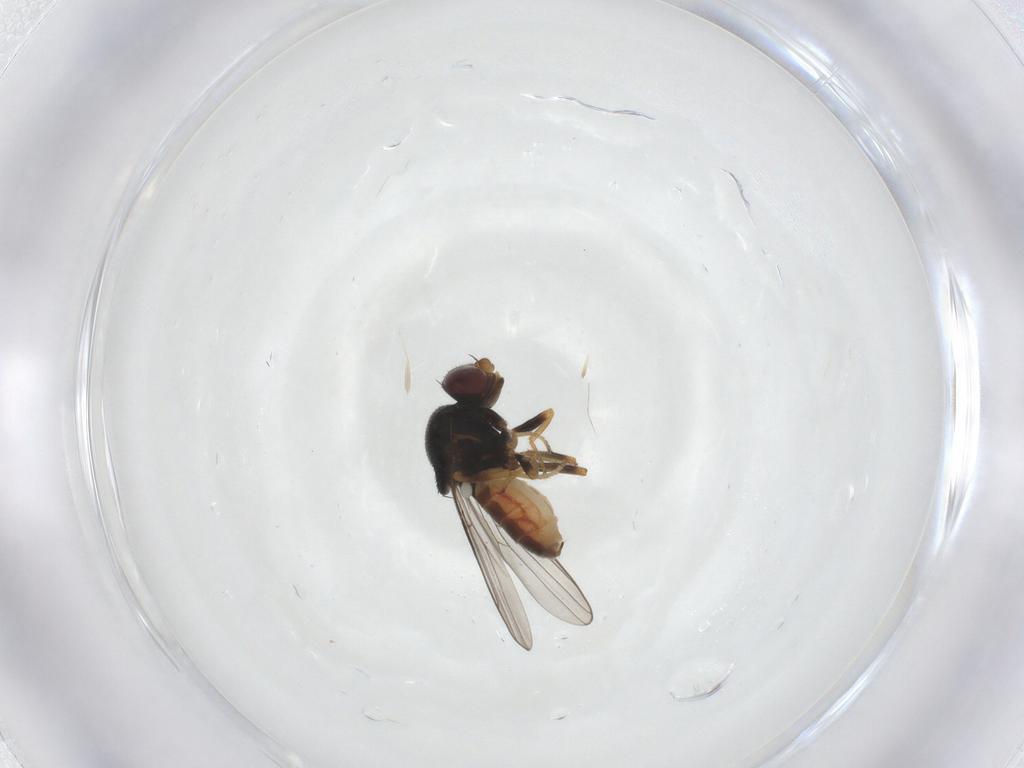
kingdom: Animalia
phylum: Arthropoda
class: Insecta
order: Diptera
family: Chloropidae
